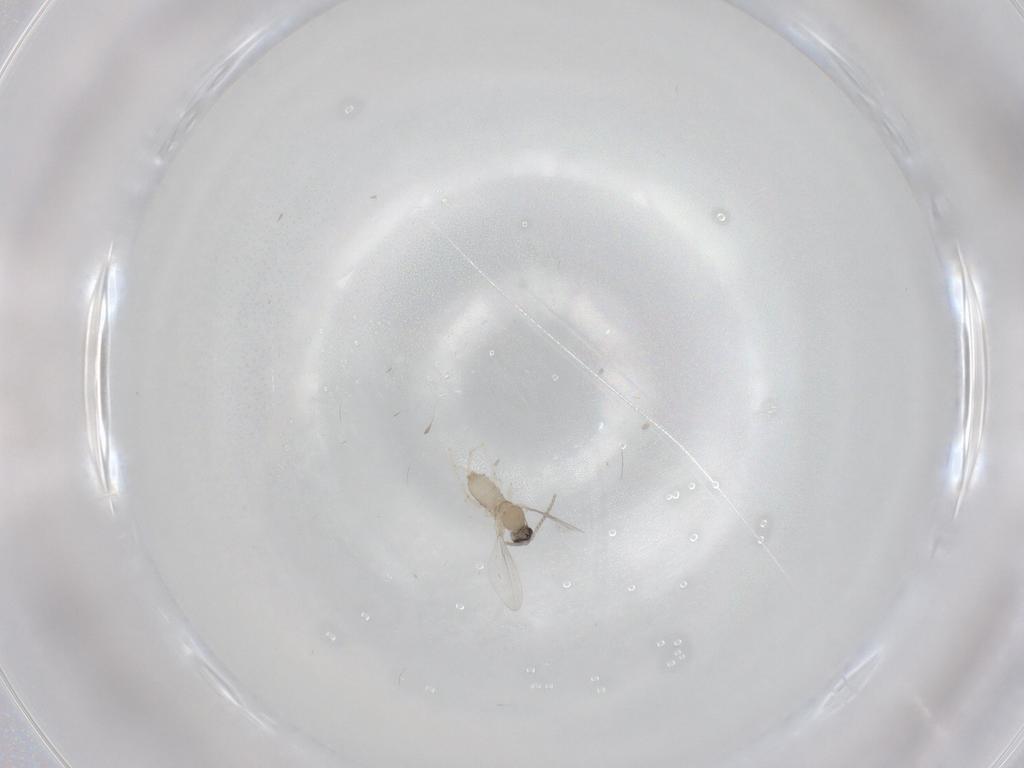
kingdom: Animalia
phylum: Arthropoda
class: Insecta
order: Diptera
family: Cecidomyiidae
